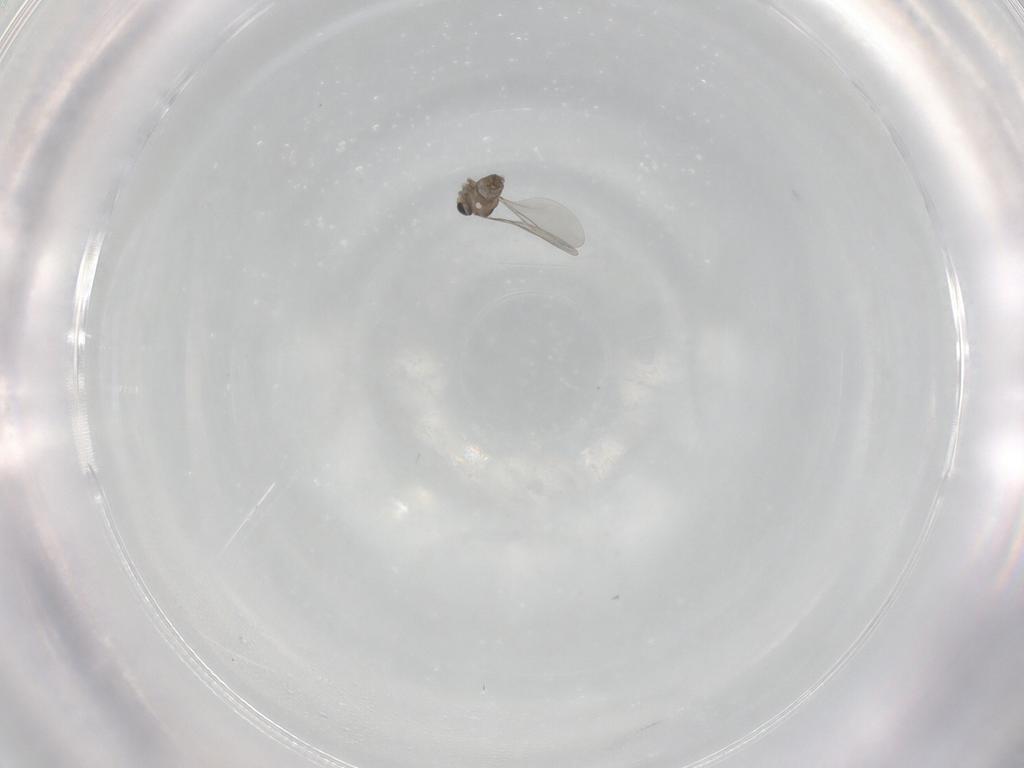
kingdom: Animalia
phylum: Arthropoda
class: Insecta
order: Diptera
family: Cecidomyiidae
